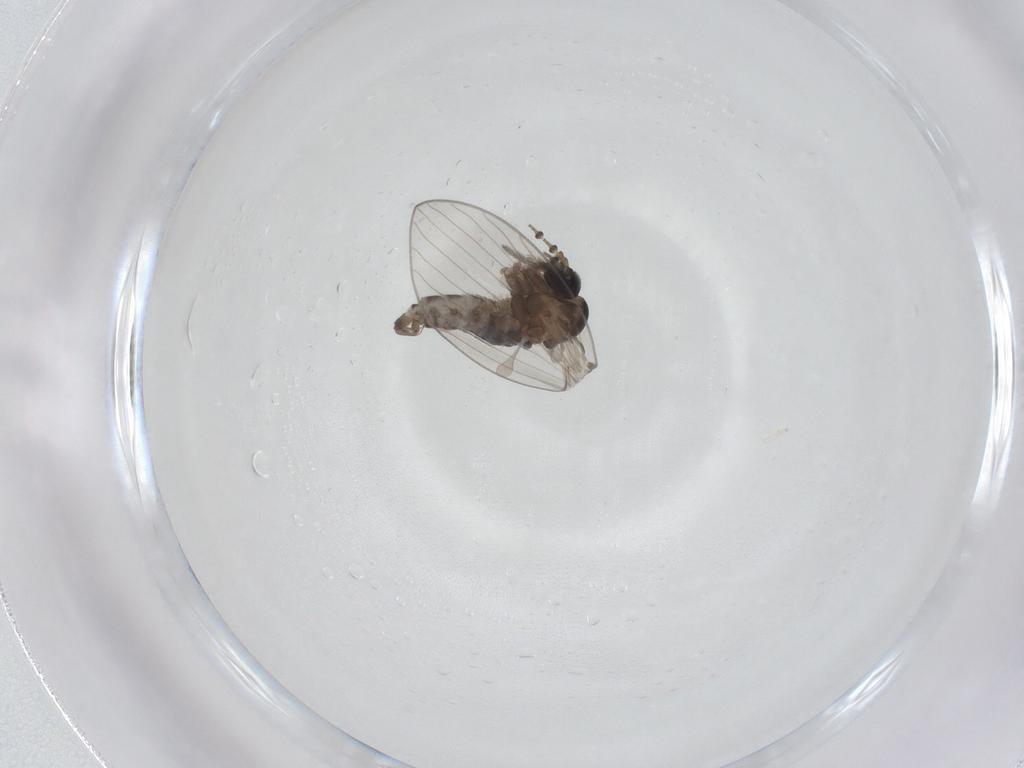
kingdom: Animalia
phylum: Arthropoda
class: Insecta
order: Diptera
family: Psychodidae
